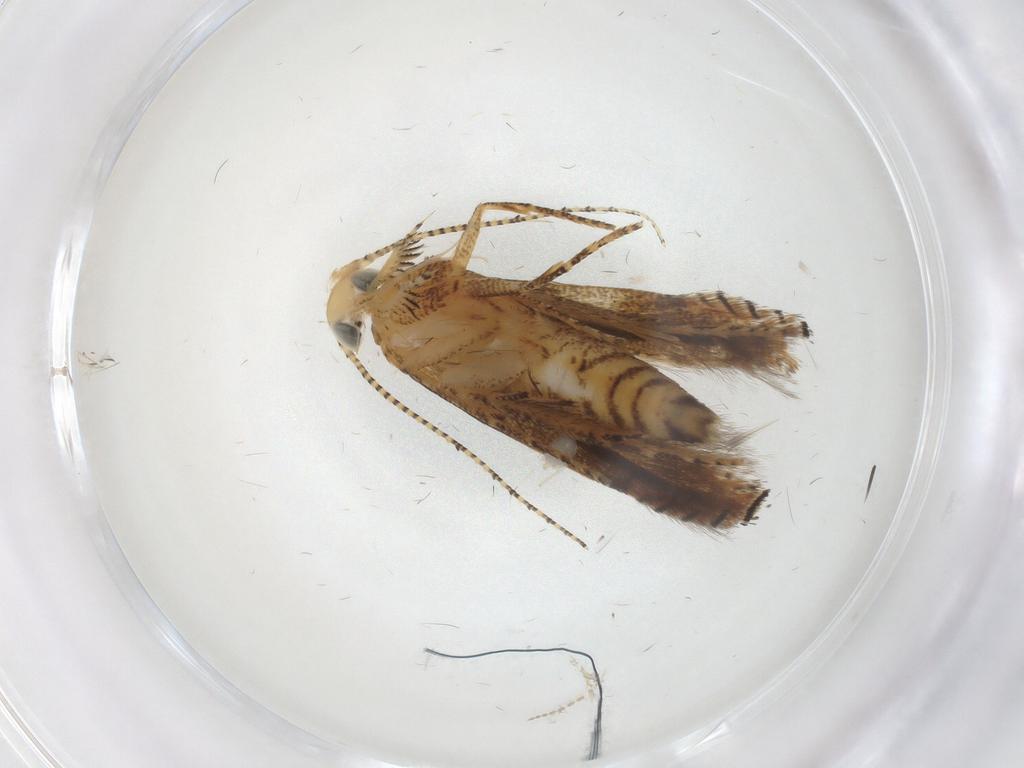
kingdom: Animalia
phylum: Arthropoda
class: Insecta
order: Lepidoptera
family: Gelechiidae
